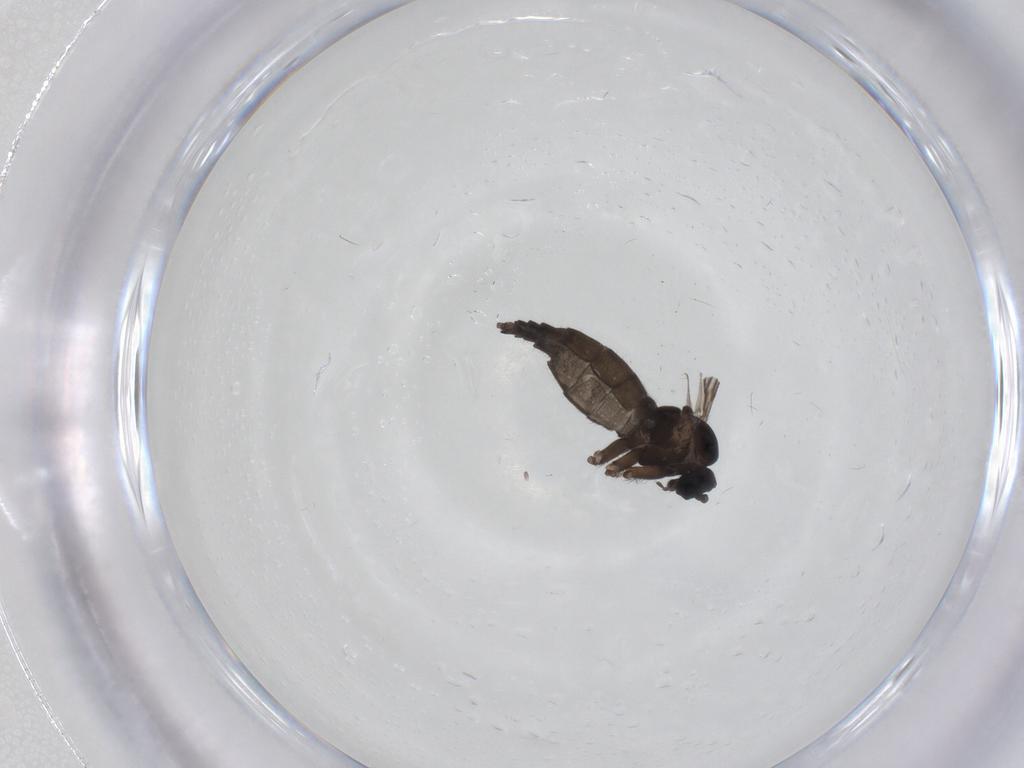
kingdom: Animalia
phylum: Arthropoda
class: Insecta
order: Diptera
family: Sciaridae
